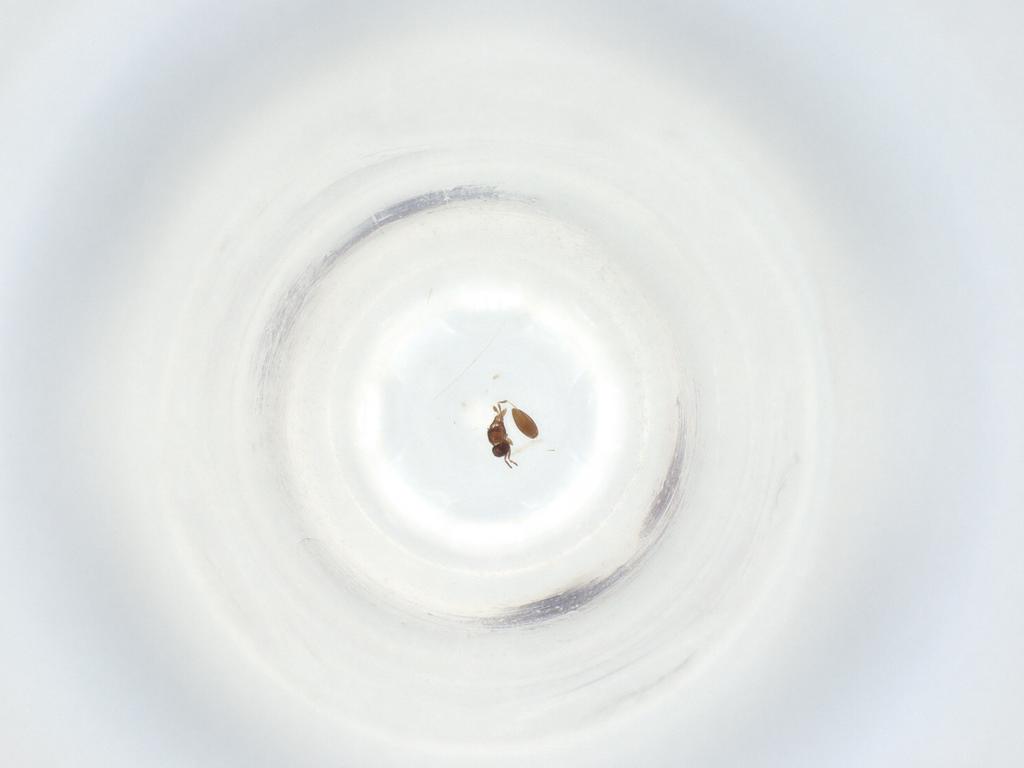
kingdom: Animalia
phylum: Arthropoda
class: Insecta
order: Hymenoptera
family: Scelionidae
